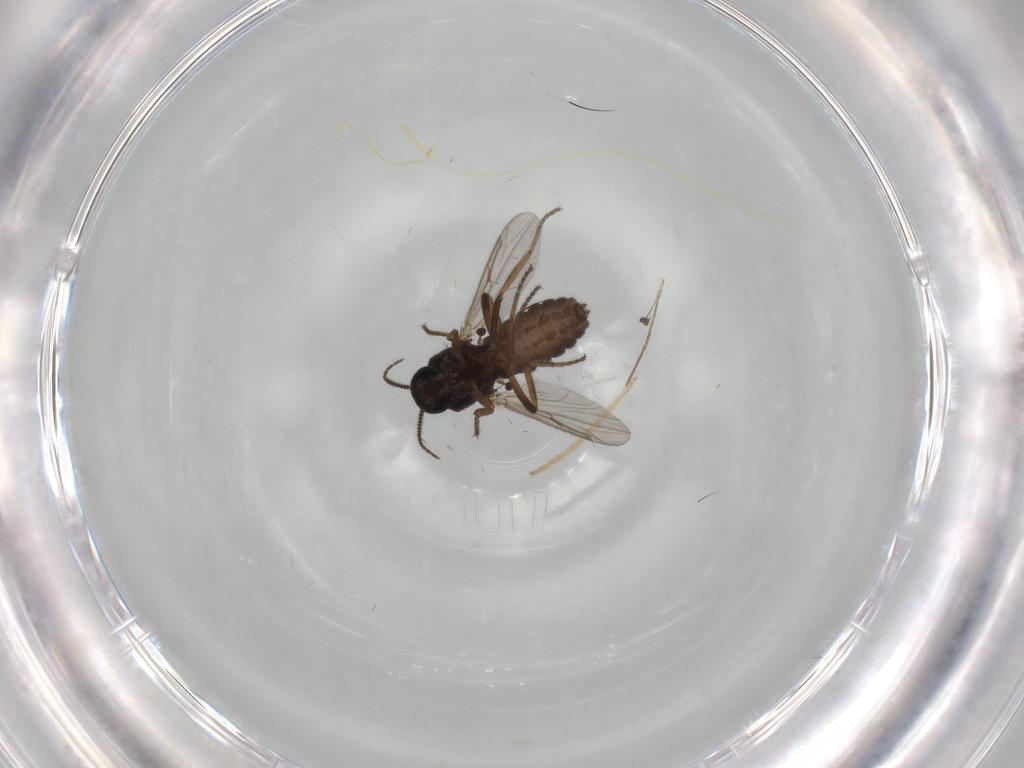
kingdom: Animalia
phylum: Arthropoda
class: Insecta
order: Diptera
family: Ceratopogonidae
